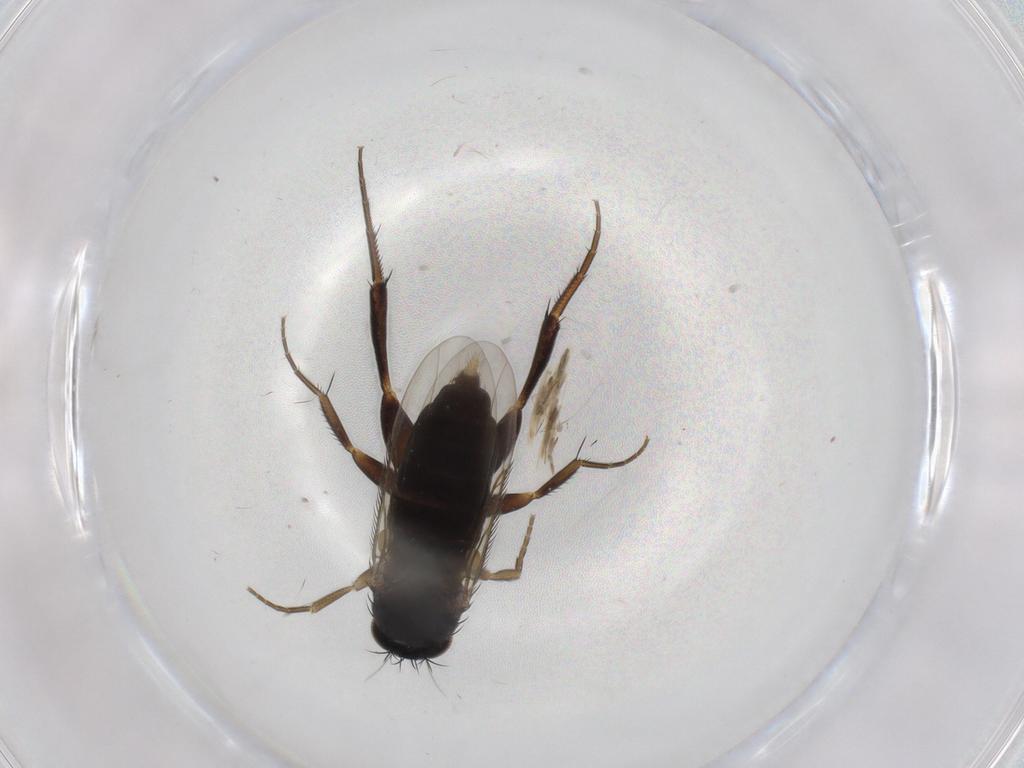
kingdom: Animalia
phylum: Arthropoda
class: Insecta
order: Diptera
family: Phoridae
